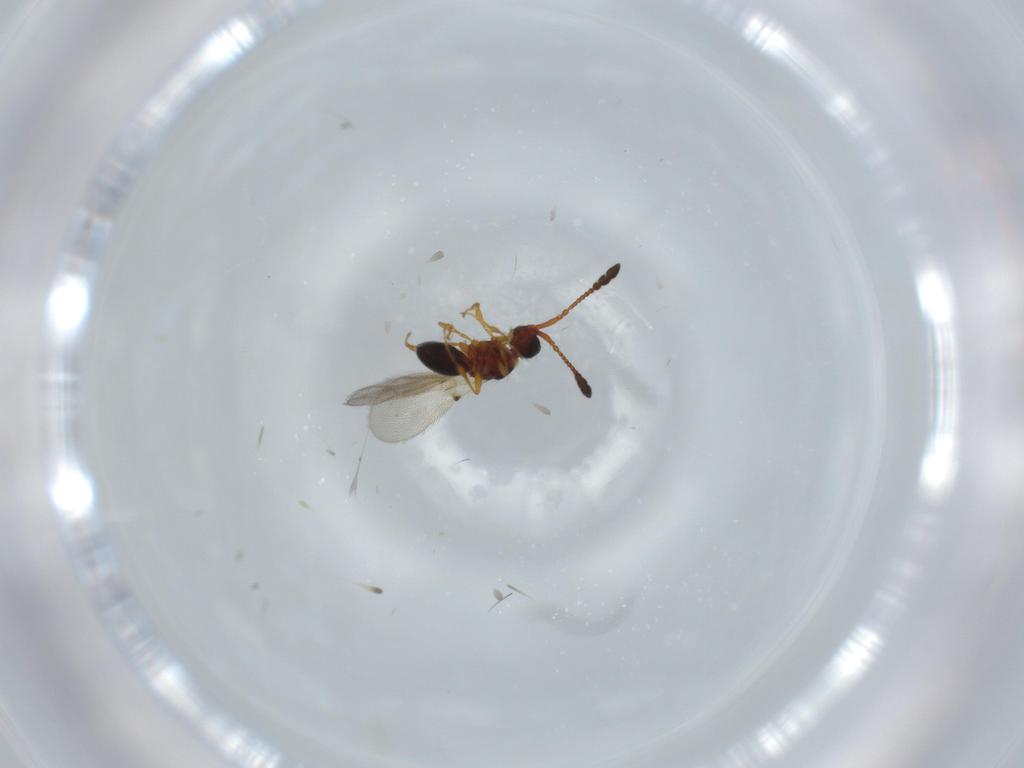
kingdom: Animalia
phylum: Arthropoda
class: Insecta
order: Hymenoptera
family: Diapriidae
